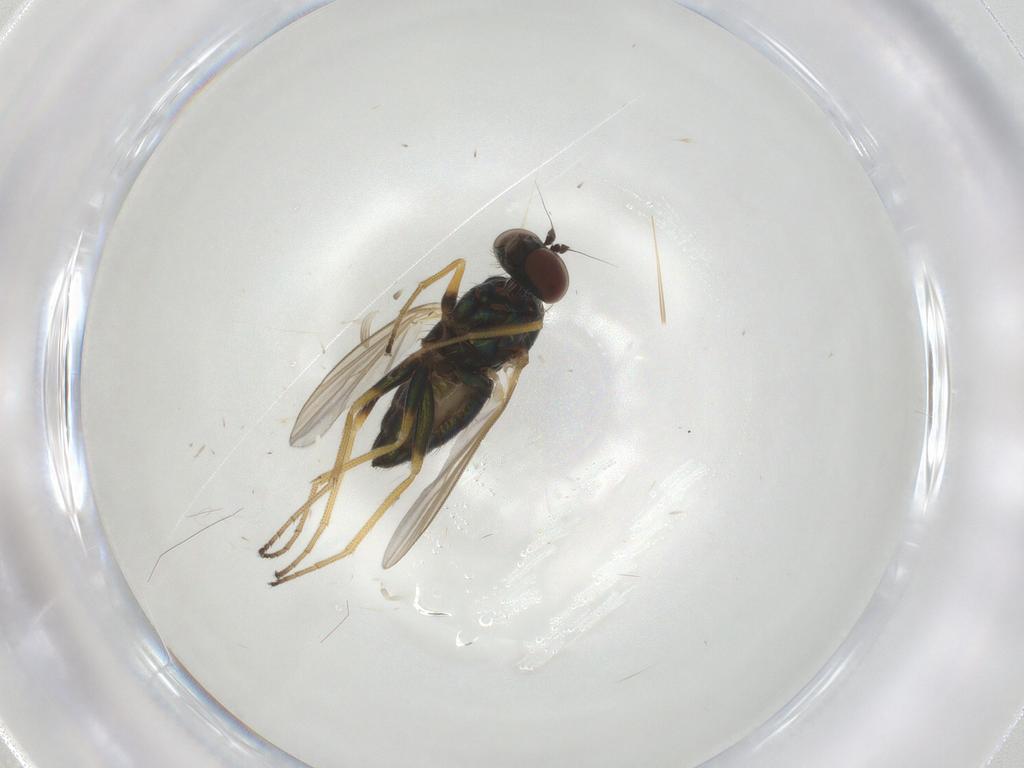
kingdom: Animalia
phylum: Arthropoda
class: Insecta
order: Diptera
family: Dolichopodidae
